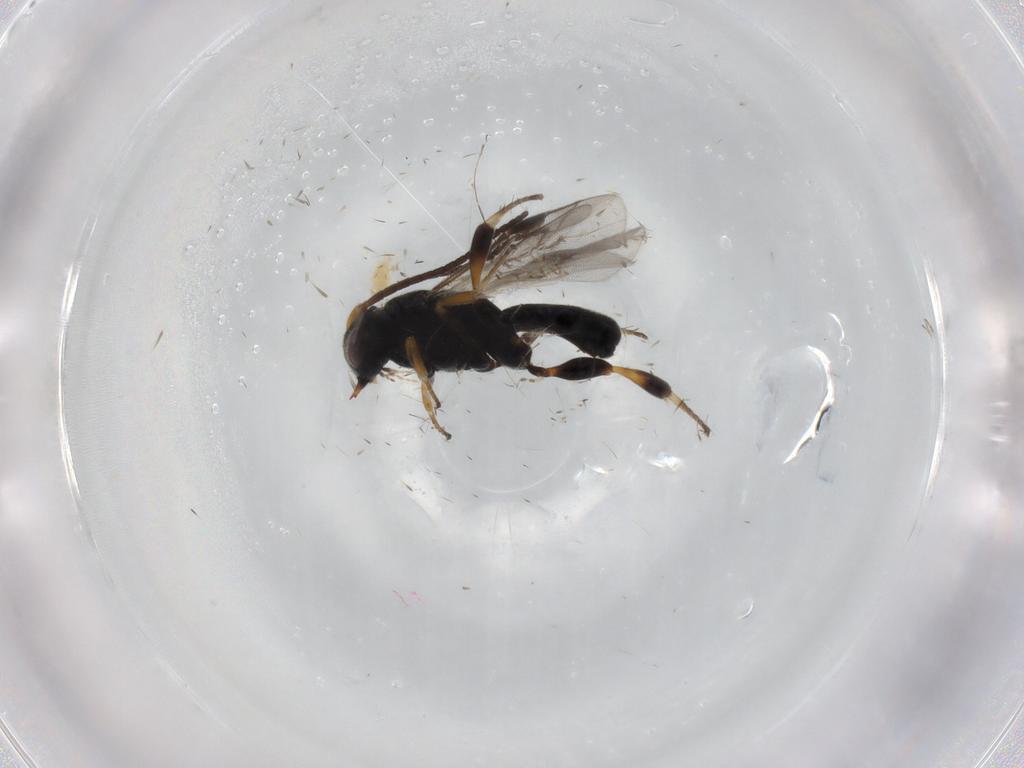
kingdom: Animalia
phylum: Arthropoda
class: Insecta
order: Hymenoptera
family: Braconidae
